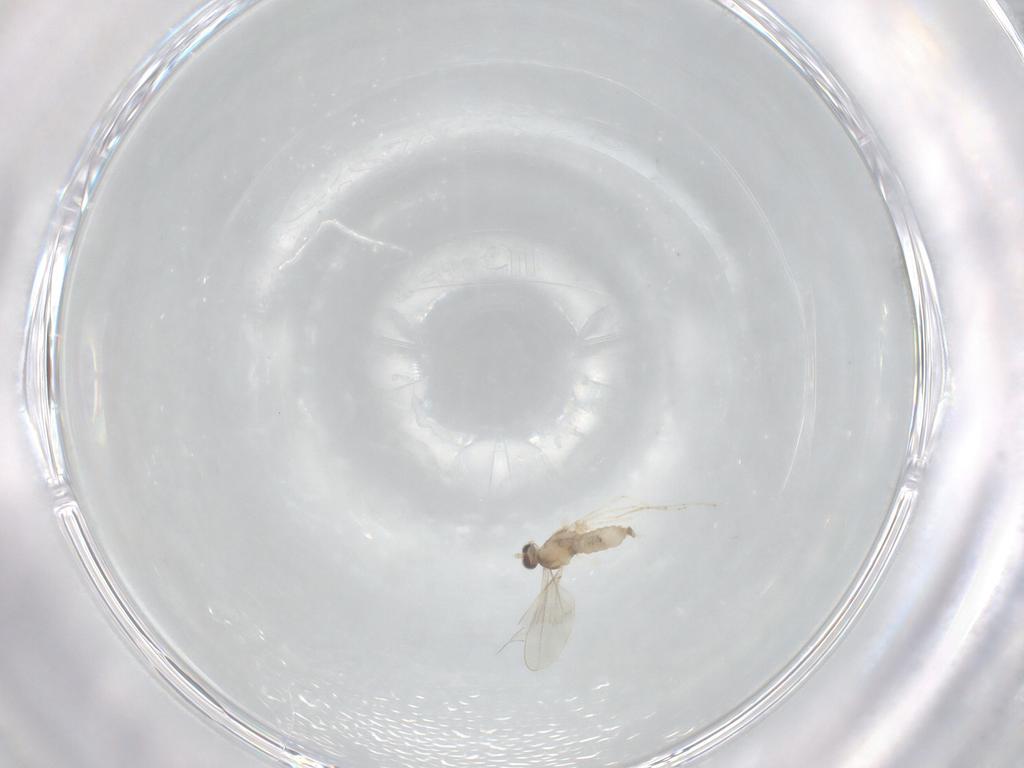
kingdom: Animalia
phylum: Arthropoda
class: Insecta
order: Diptera
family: Cecidomyiidae
